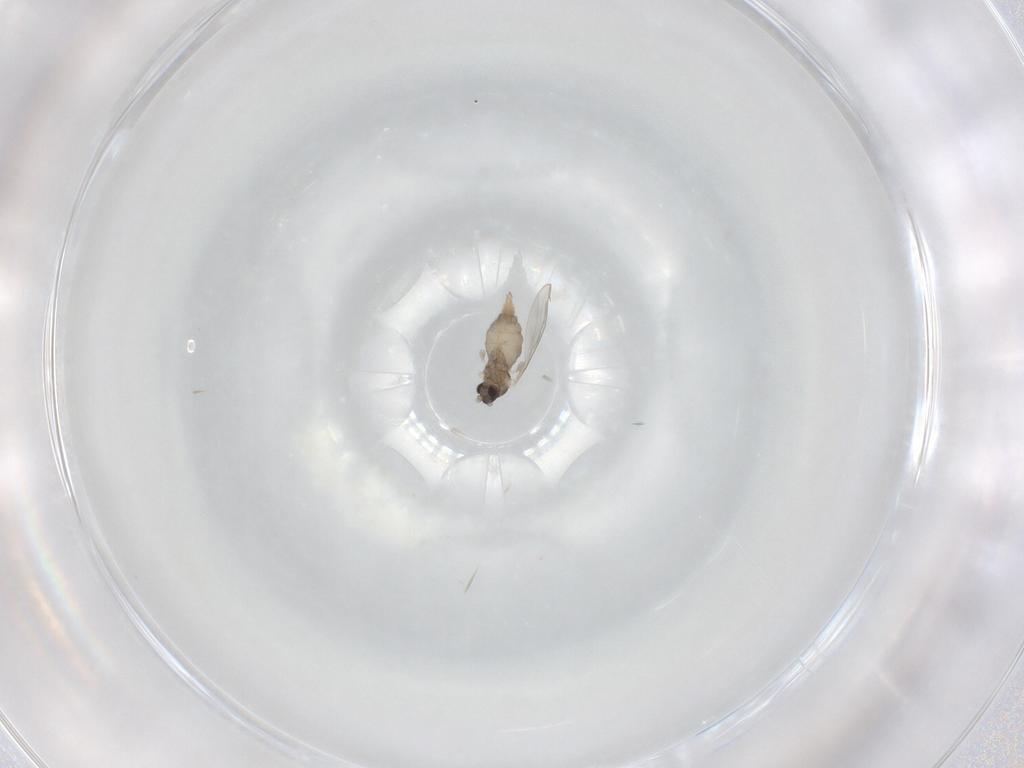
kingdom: Animalia
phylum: Arthropoda
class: Insecta
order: Diptera
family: Cecidomyiidae
